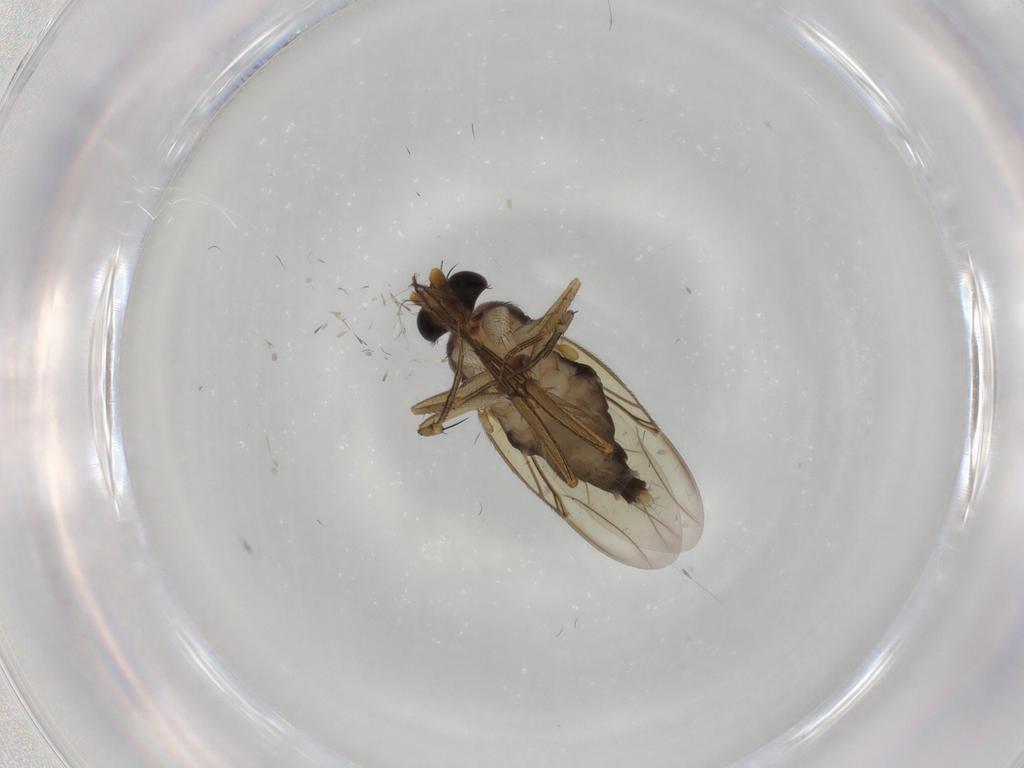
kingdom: Animalia
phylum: Arthropoda
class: Insecta
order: Diptera
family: Phoridae
